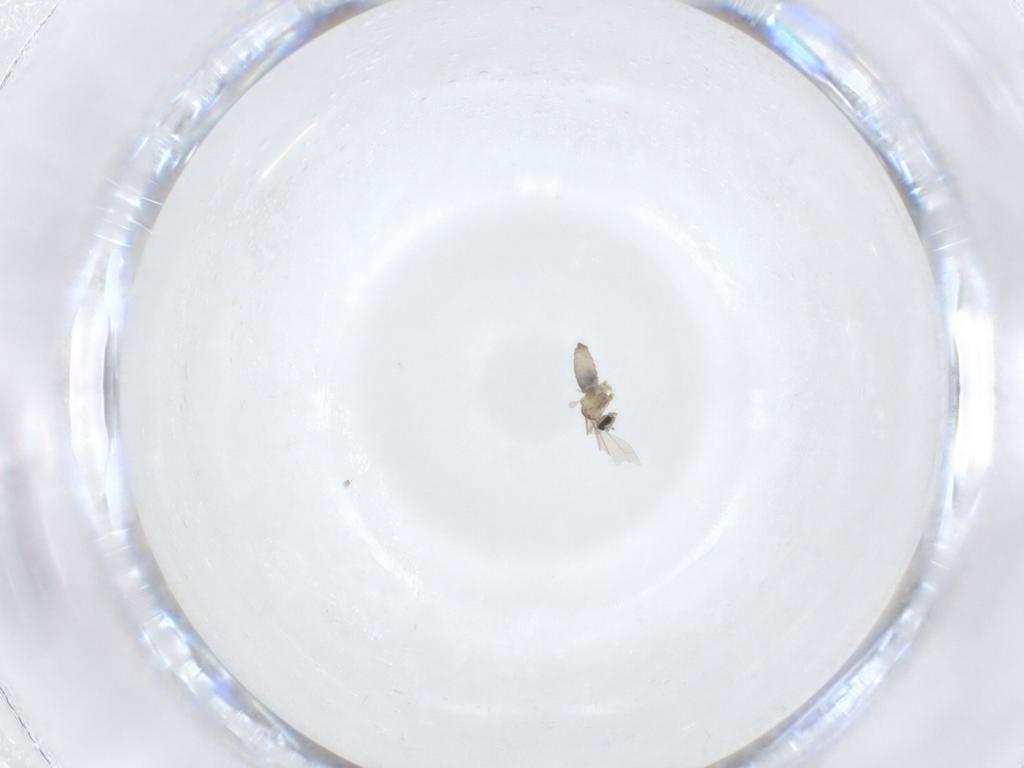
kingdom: Animalia
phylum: Arthropoda
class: Insecta
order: Diptera
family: Cecidomyiidae
